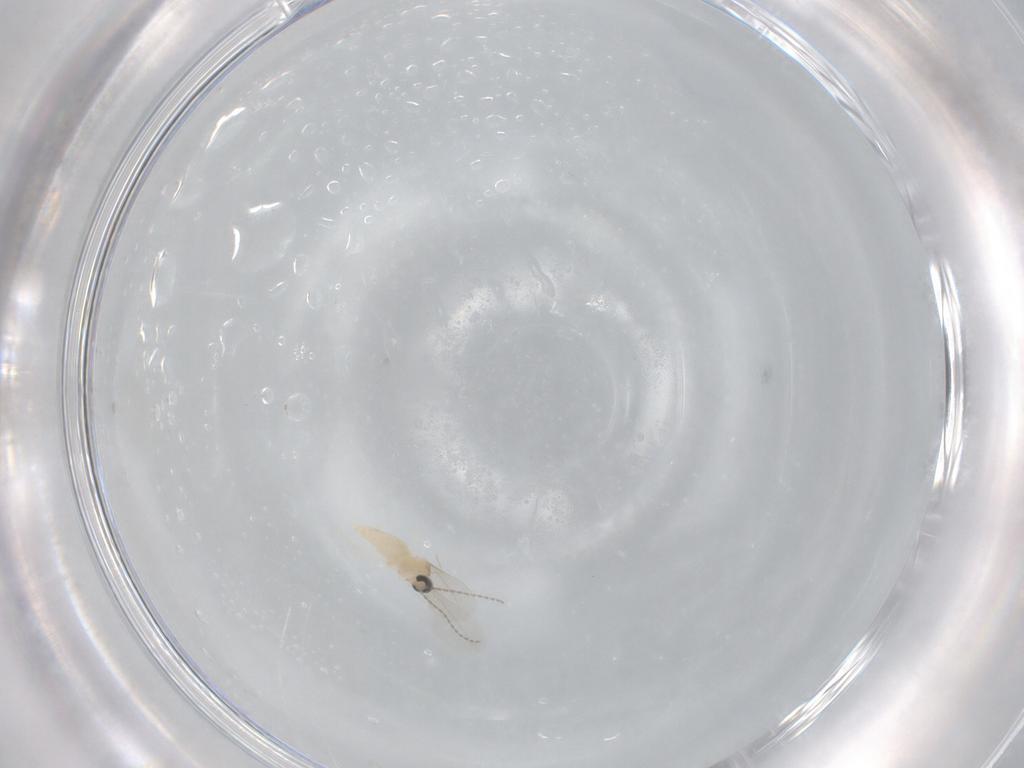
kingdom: Animalia
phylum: Arthropoda
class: Insecta
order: Diptera
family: Cecidomyiidae
